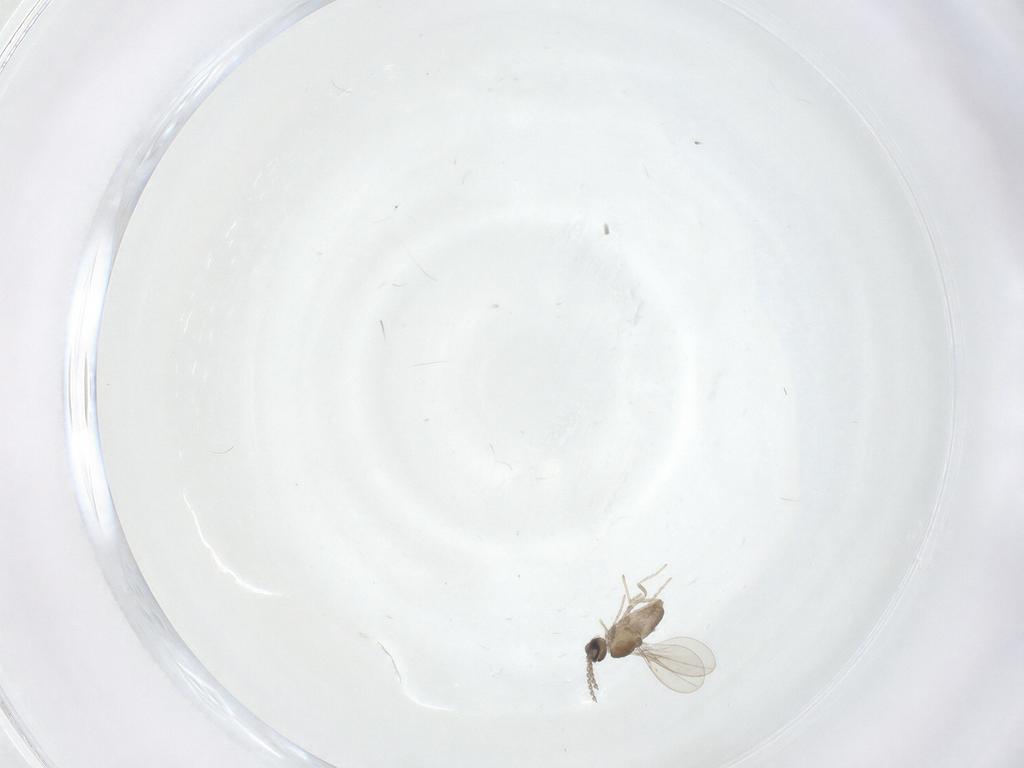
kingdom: Animalia
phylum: Arthropoda
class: Insecta
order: Diptera
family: Cecidomyiidae
